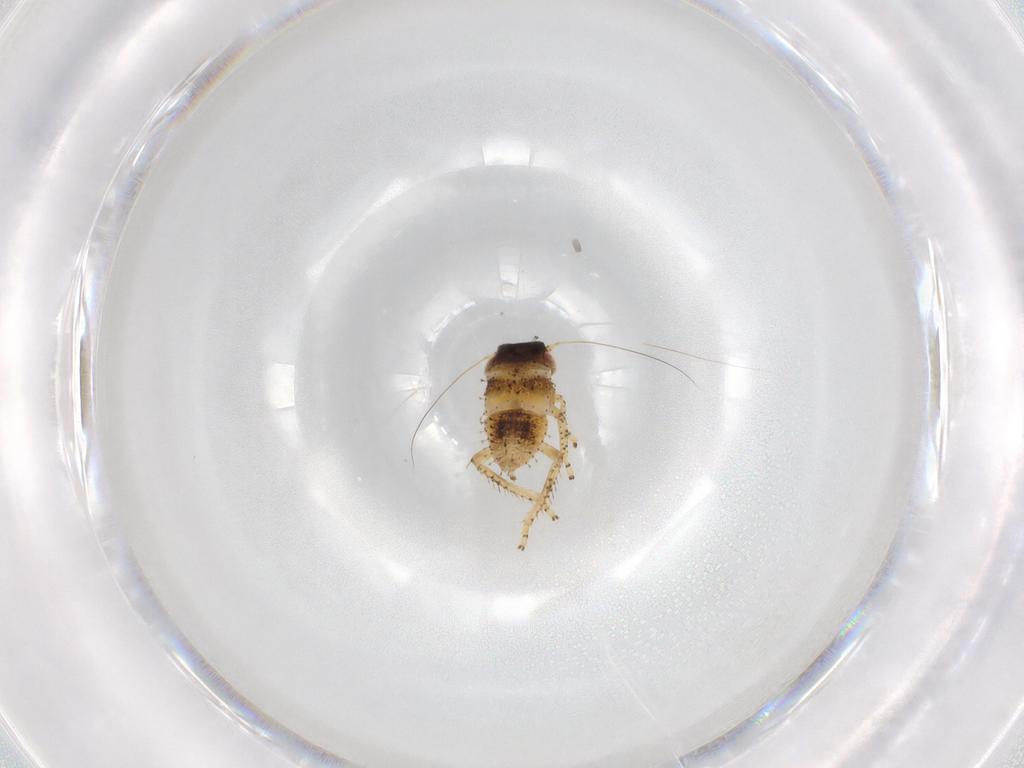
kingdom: Animalia
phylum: Arthropoda
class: Insecta
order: Hemiptera
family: Cicadellidae
